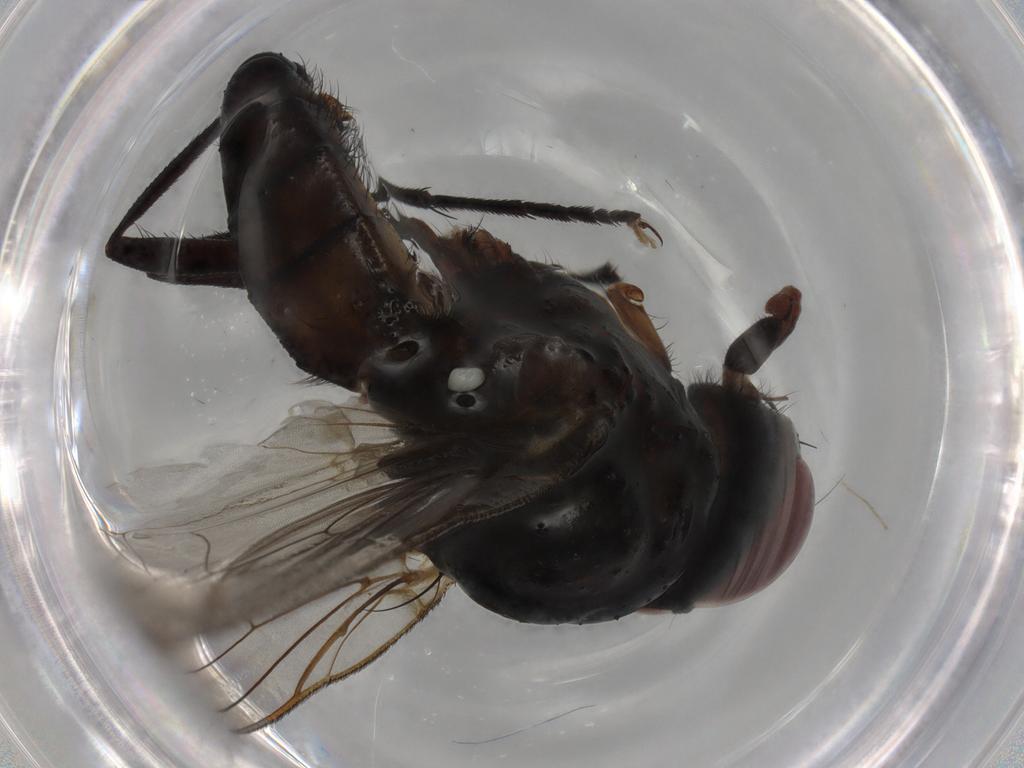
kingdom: Animalia
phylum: Arthropoda
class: Insecta
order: Diptera
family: Anthomyiidae
